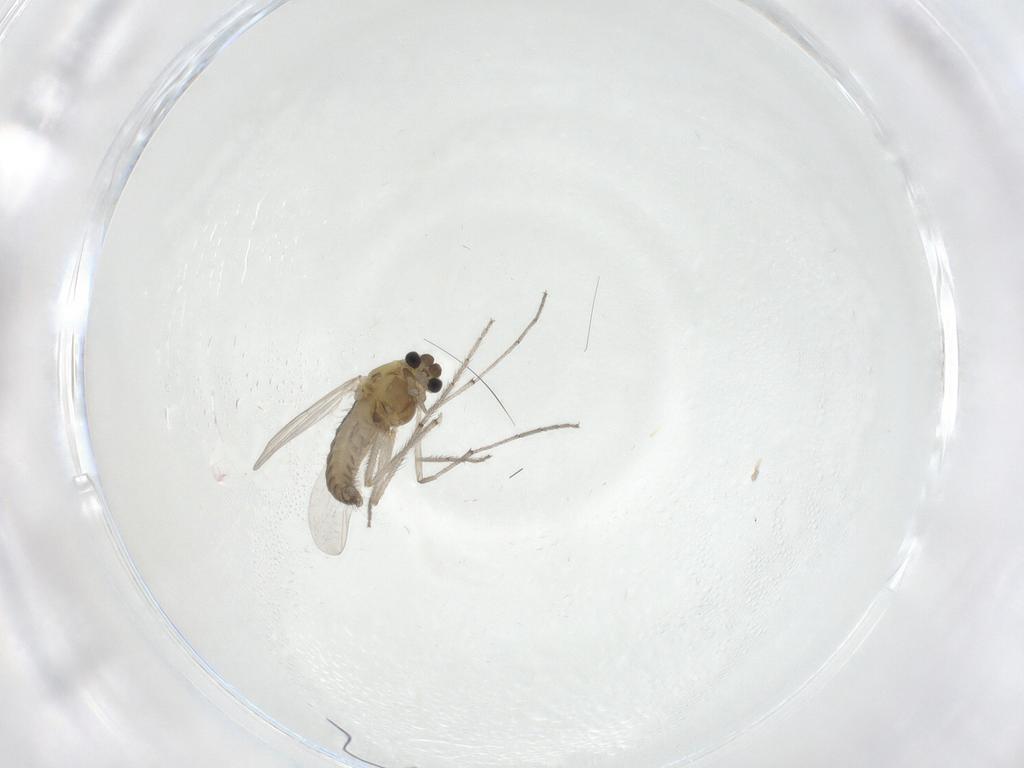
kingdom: Animalia
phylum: Arthropoda
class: Insecta
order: Diptera
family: Chironomidae
